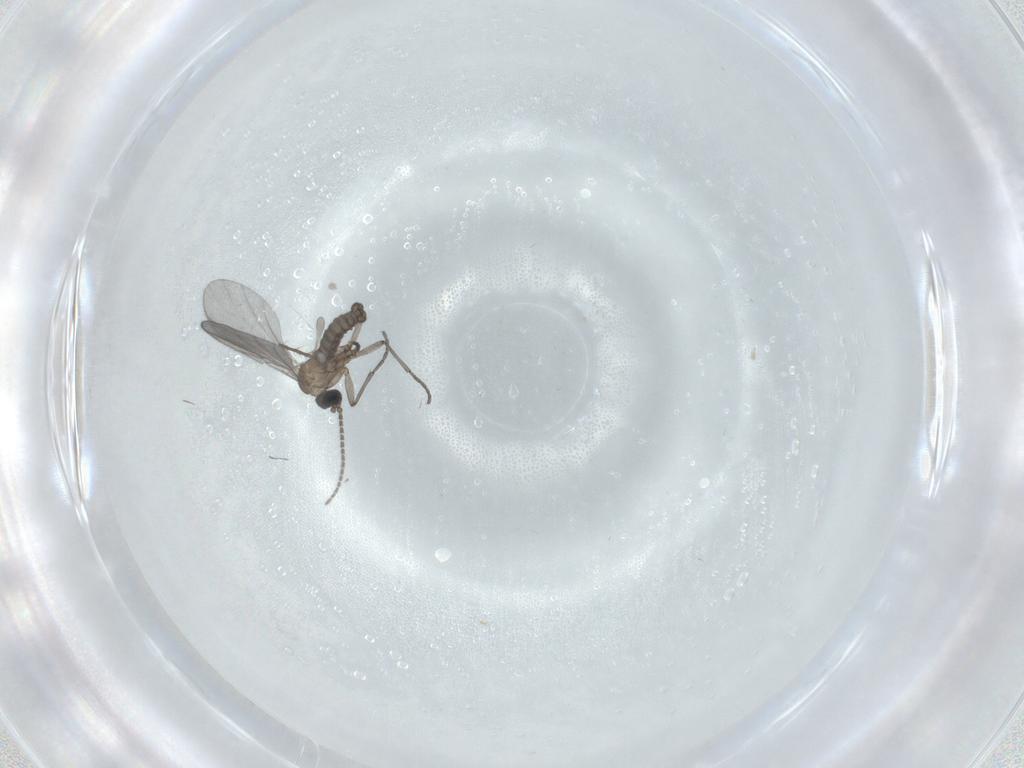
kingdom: Animalia
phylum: Arthropoda
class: Insecta
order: Diptera
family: Sciaridae
